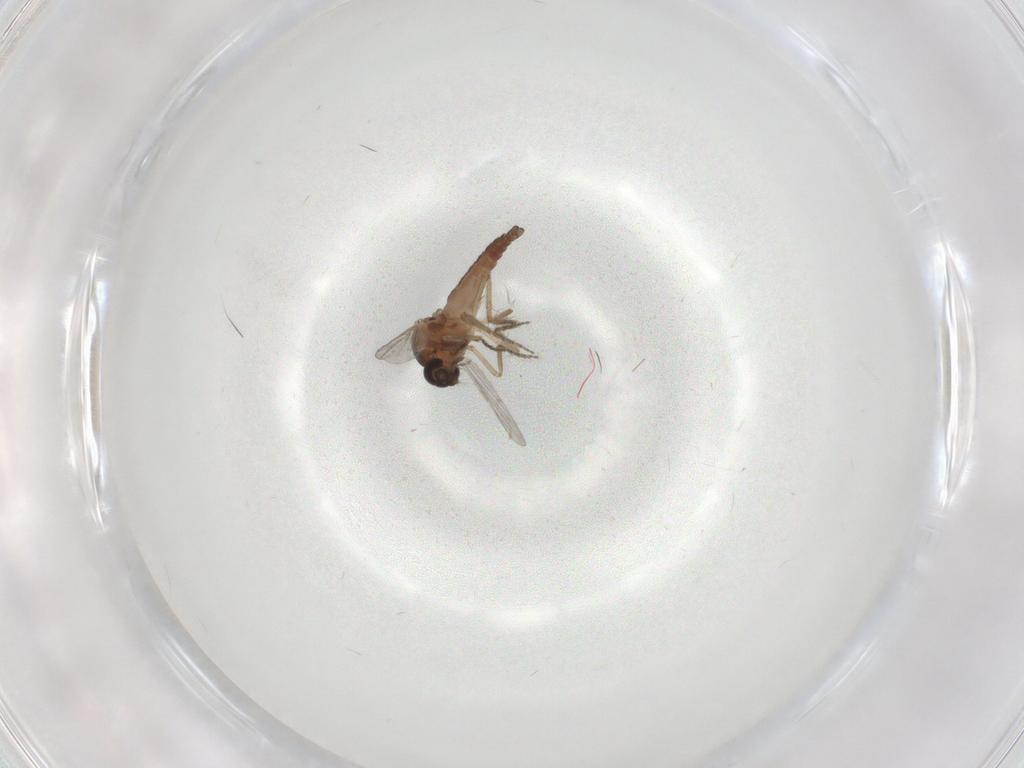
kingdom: Animalia
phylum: Arthropoda
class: Insecta
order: Diptera
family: Ceratopogonidae
